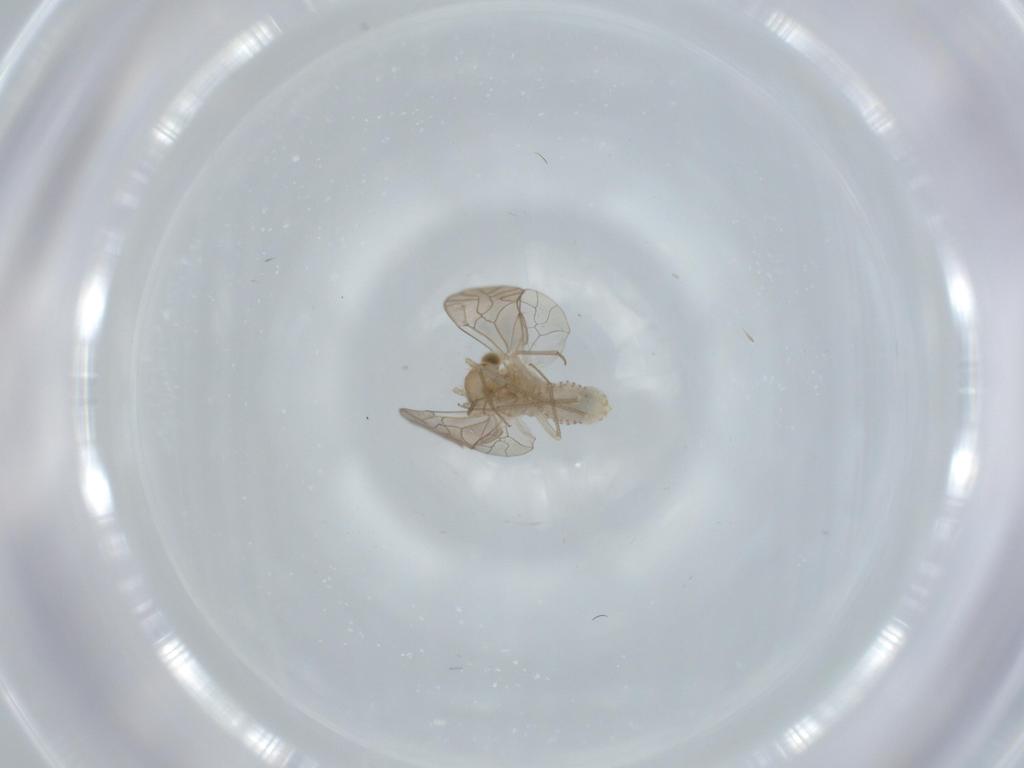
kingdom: Animalia
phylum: Arthropoda
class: Insecta
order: Psocodea
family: Lachesillidae
